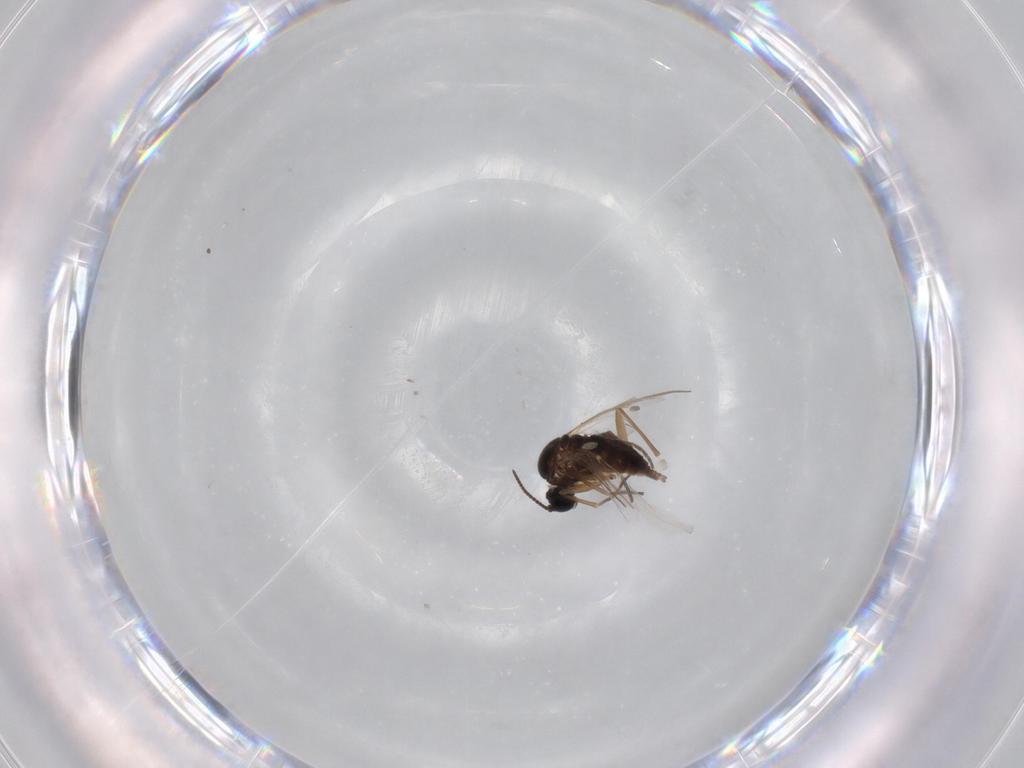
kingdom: Animalia
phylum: Arthropoda
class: Insecta
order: Diptera
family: Sciaridae
